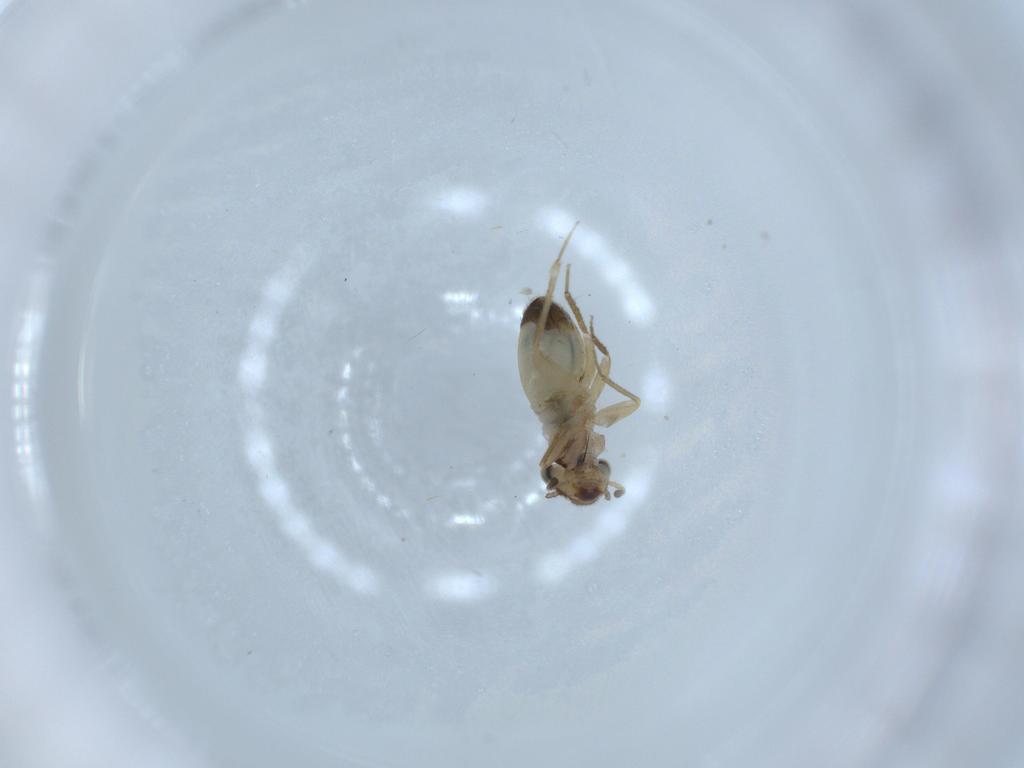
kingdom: Animalia
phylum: Arthropoda
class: Insecta
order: Psocodea
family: Lepidopsocidae
